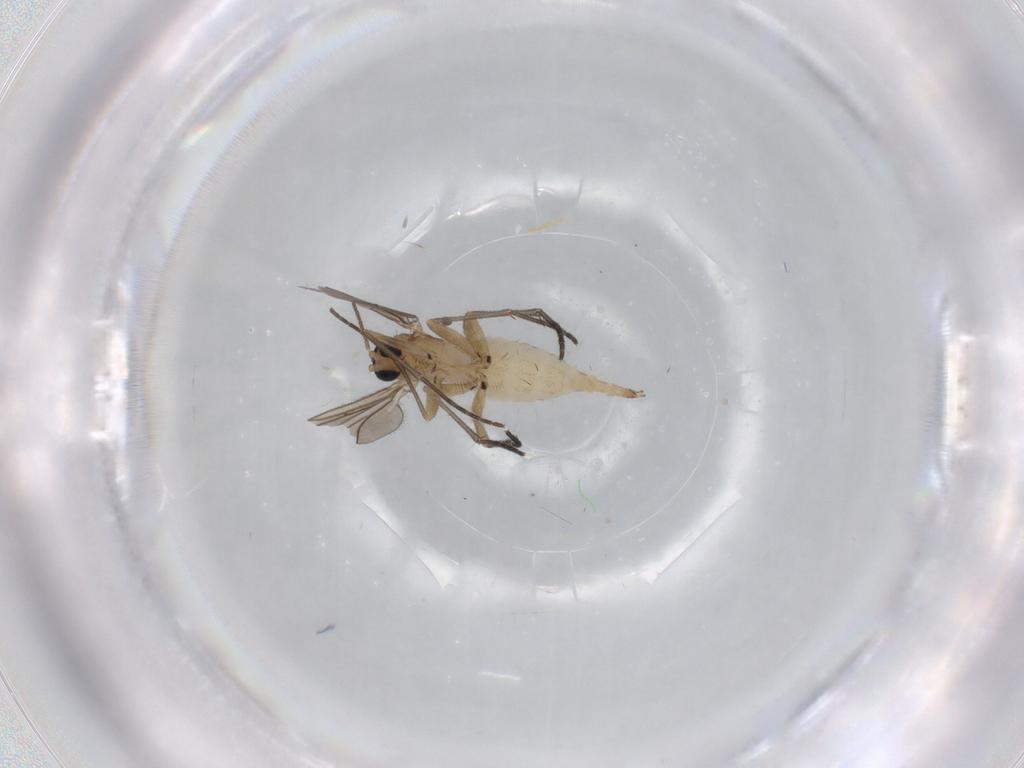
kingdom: Animalia
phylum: Arthropoda
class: Insecta
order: Diptera
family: Sciaridae
